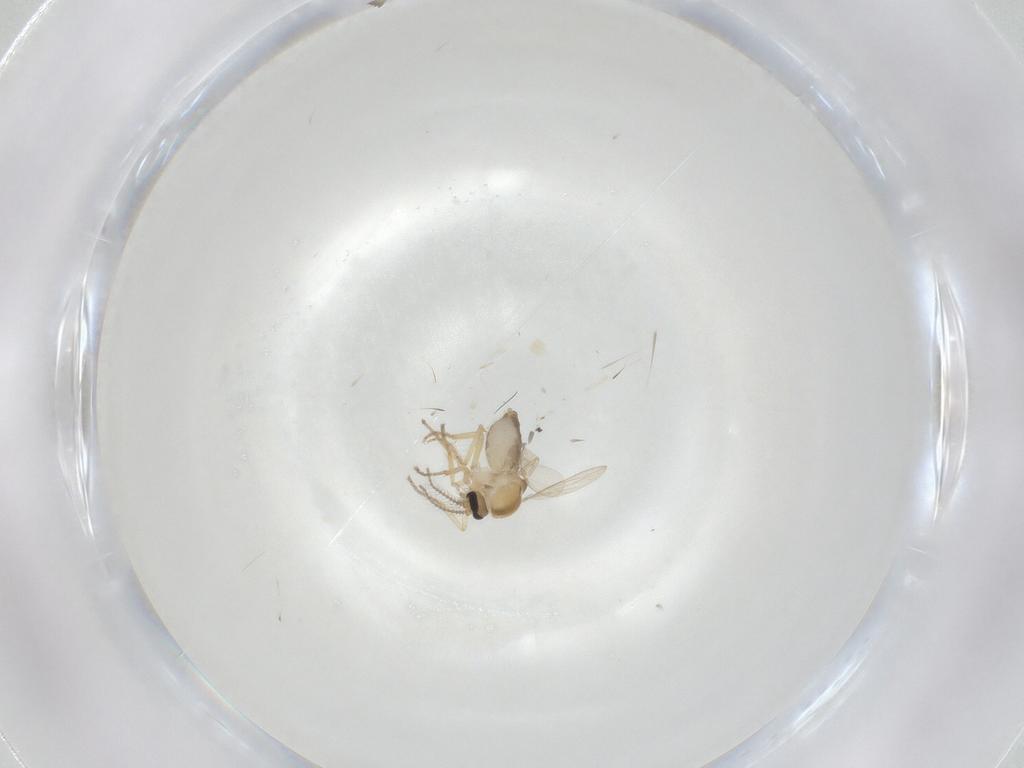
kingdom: Animalia
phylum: Arthropoda
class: Insecta
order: Diptera
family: Ceratopogonidae
